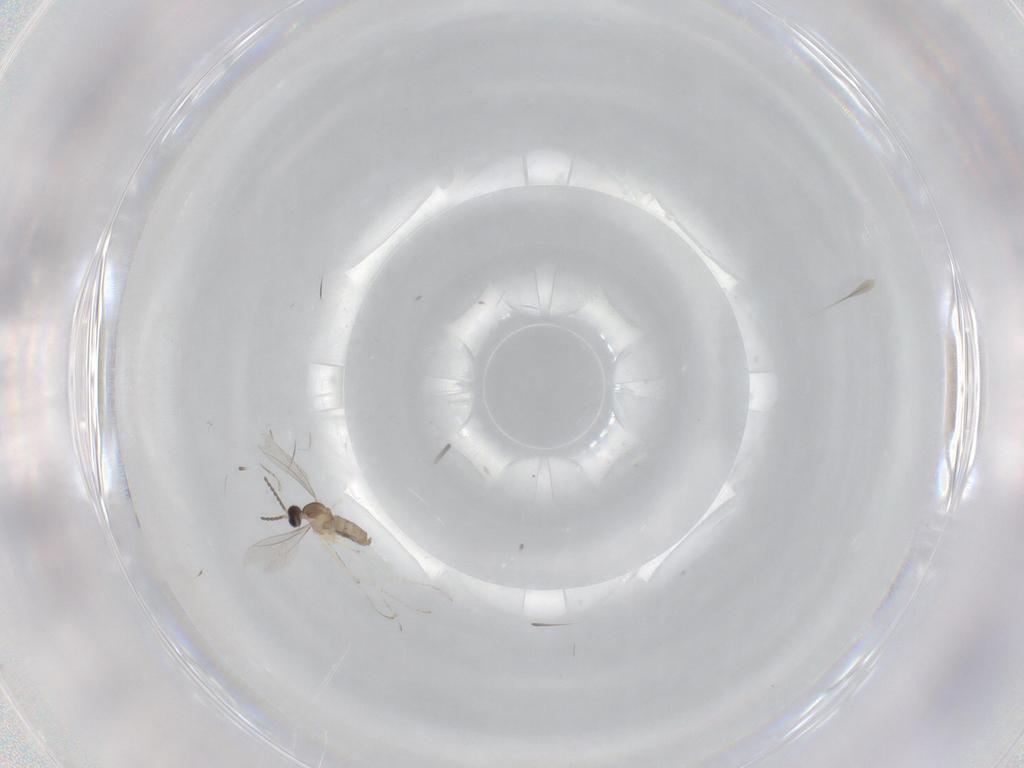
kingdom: Animalia
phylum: Arthropoda
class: Insecta
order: Diptera
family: Cecidomyiidae
